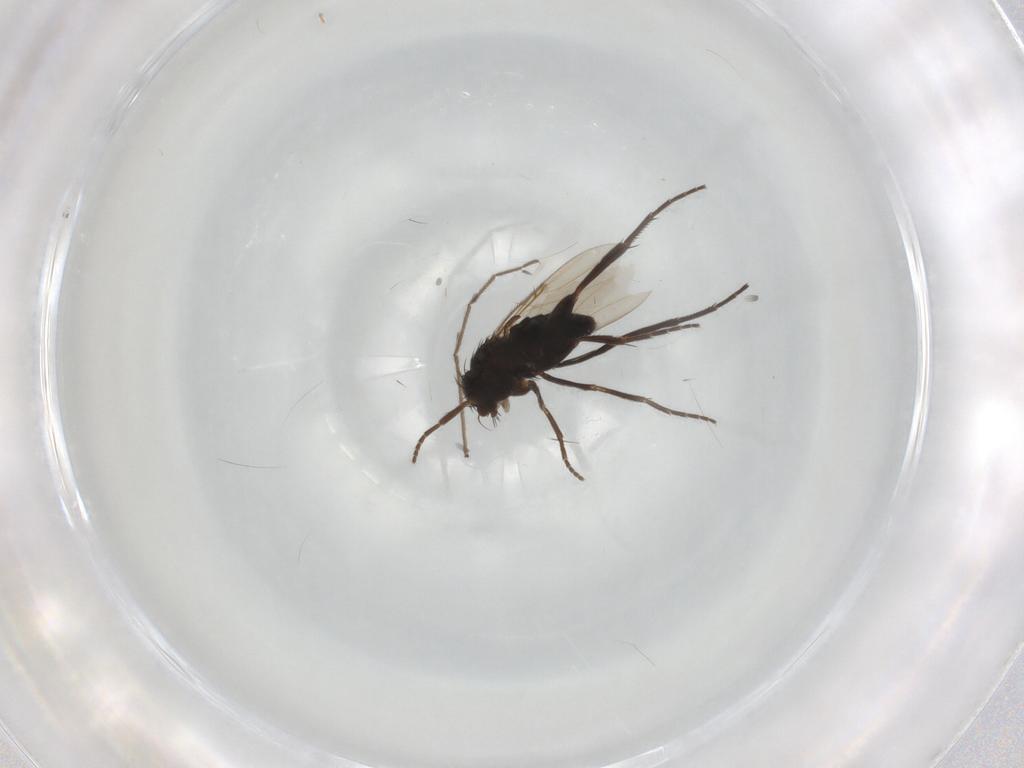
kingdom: Animalia
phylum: Arthropoda
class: Insecta
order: Diptera
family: Chironomidae
